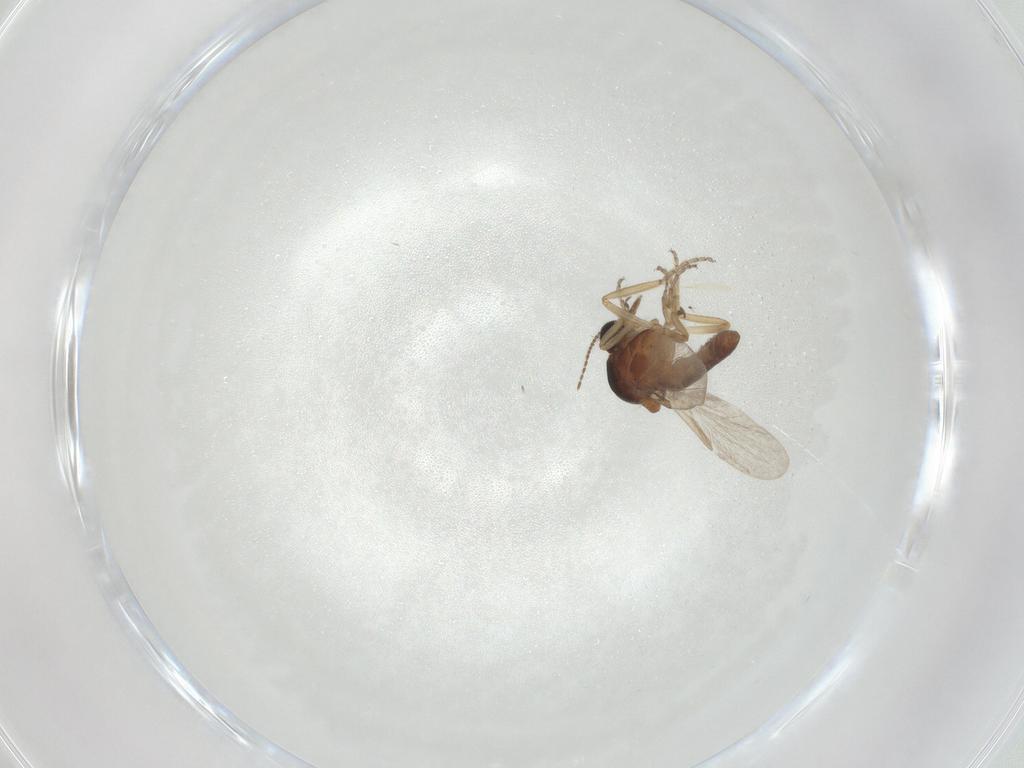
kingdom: Animalia
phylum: Arthropoda
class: Insecta
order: Diptera
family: Ceratopogonidae
